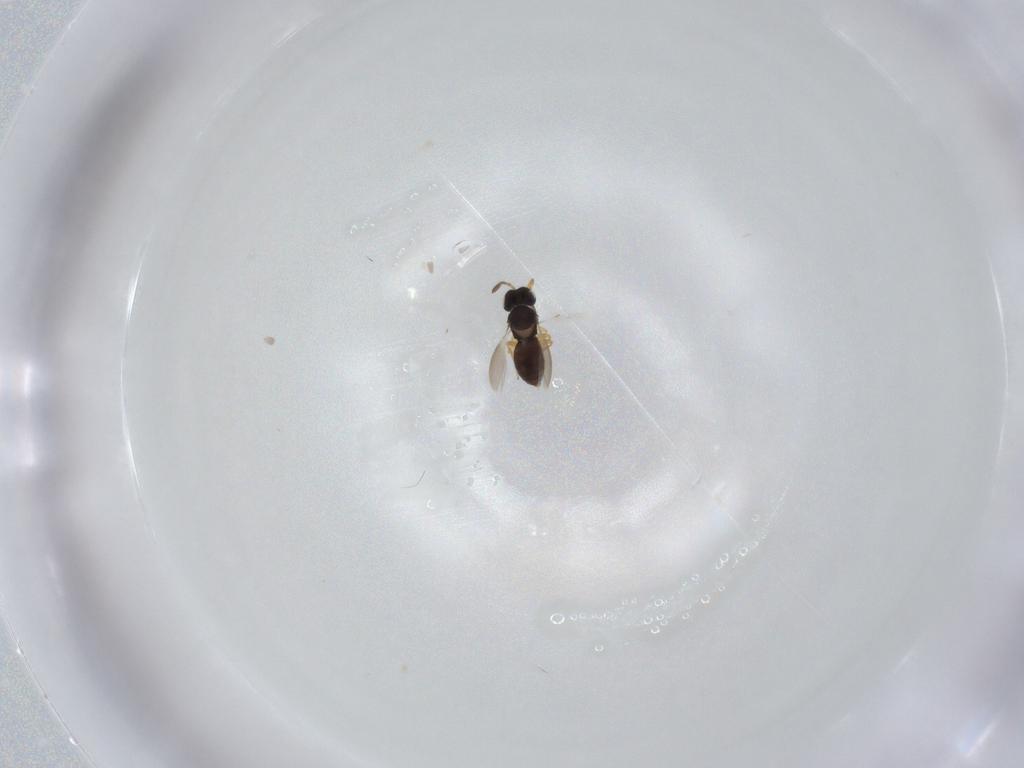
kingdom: Animalia
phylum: Arthropoda
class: Insecta
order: Hymenoptera
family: Scelionidae
